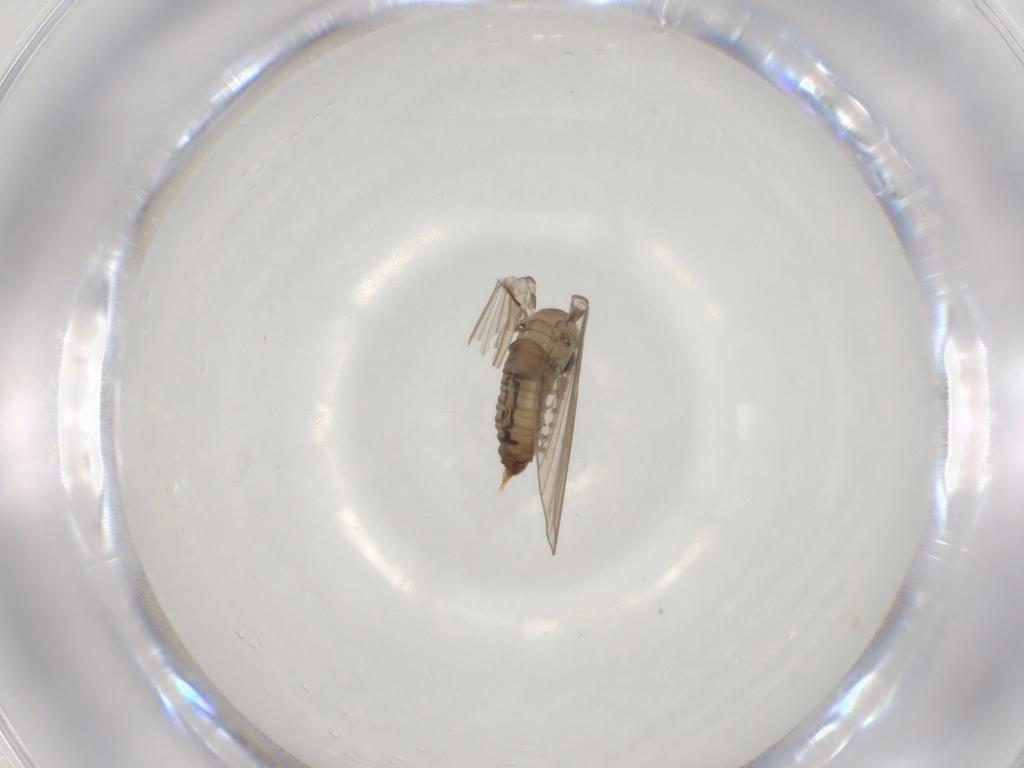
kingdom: Animalia
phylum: Arthropoda
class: Insecta
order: Diptera
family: Psychodidae
